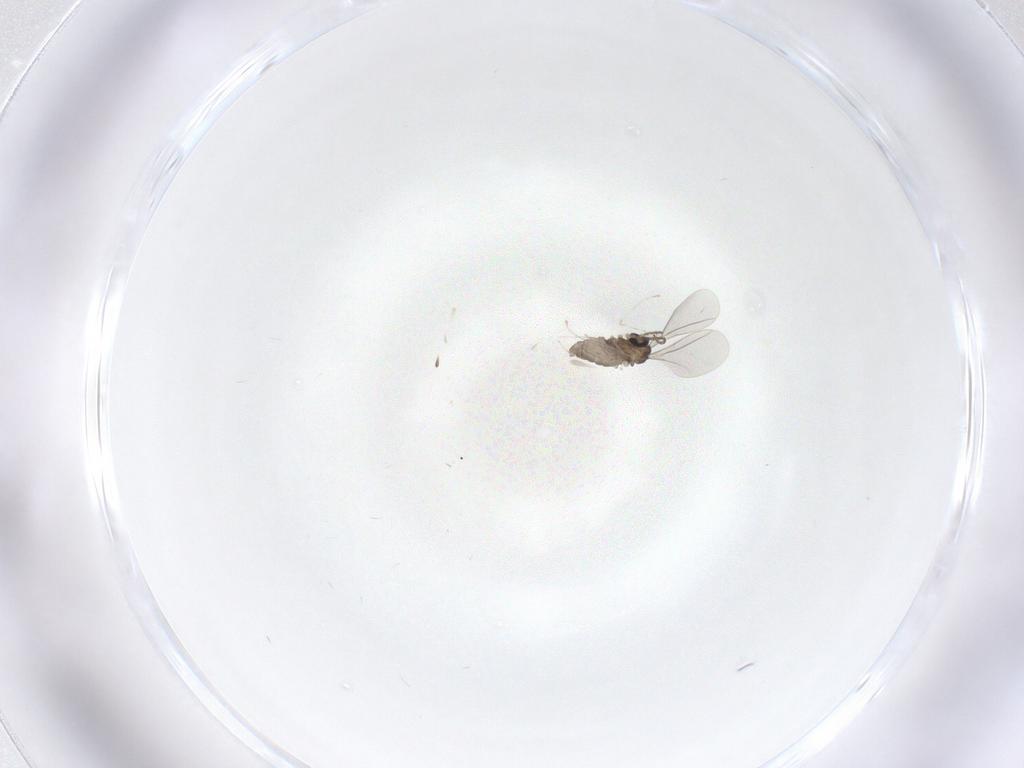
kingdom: Animalia
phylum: Arthropoda
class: Insecta
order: Diptera
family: Cecidomyiidae
